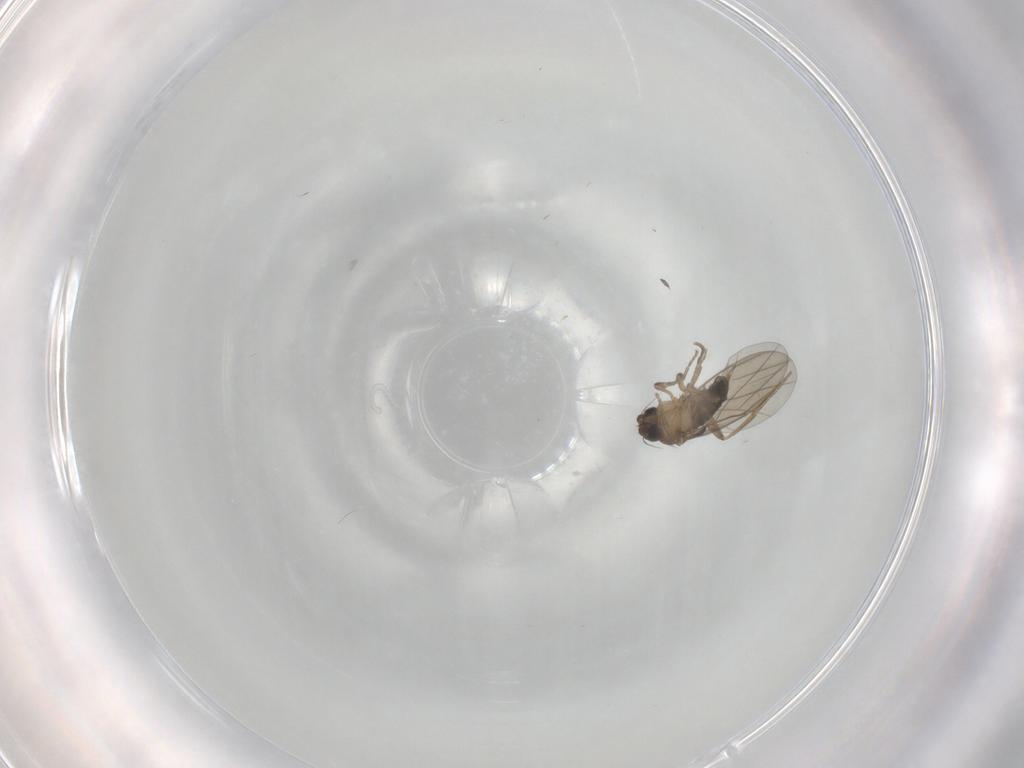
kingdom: Animalia
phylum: Arthropoda
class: Insecta
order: Diptera
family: Phoridae
